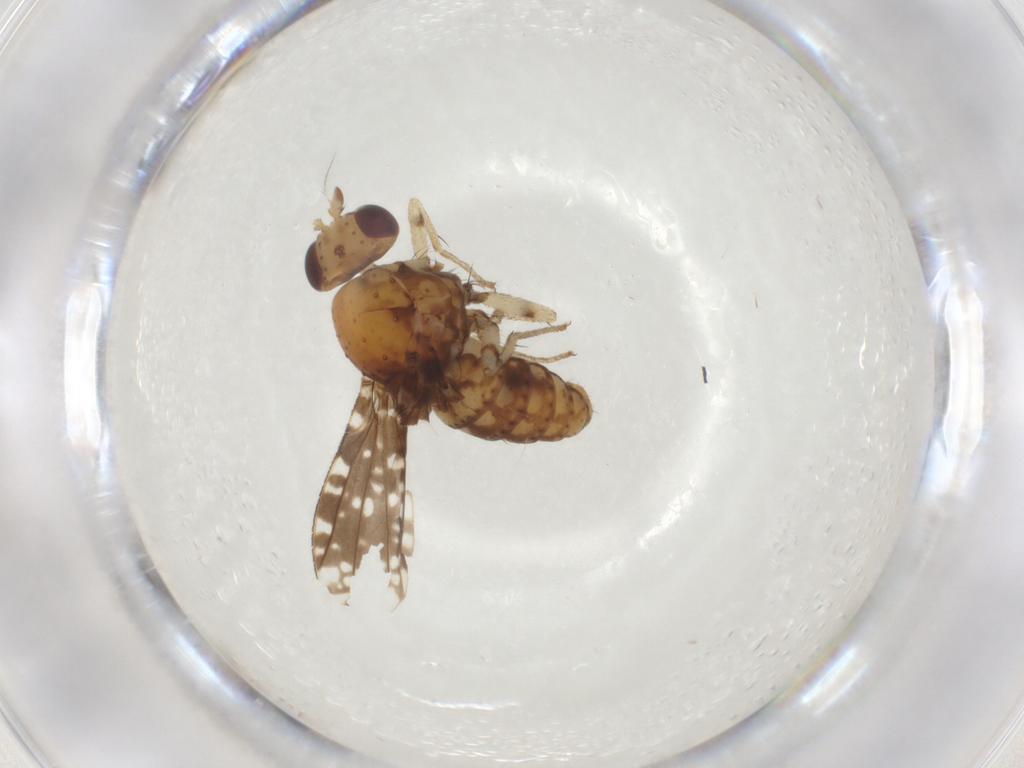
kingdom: Animalia
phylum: Arthropoda
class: Insecta
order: Diptera
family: Lauxaniidae
